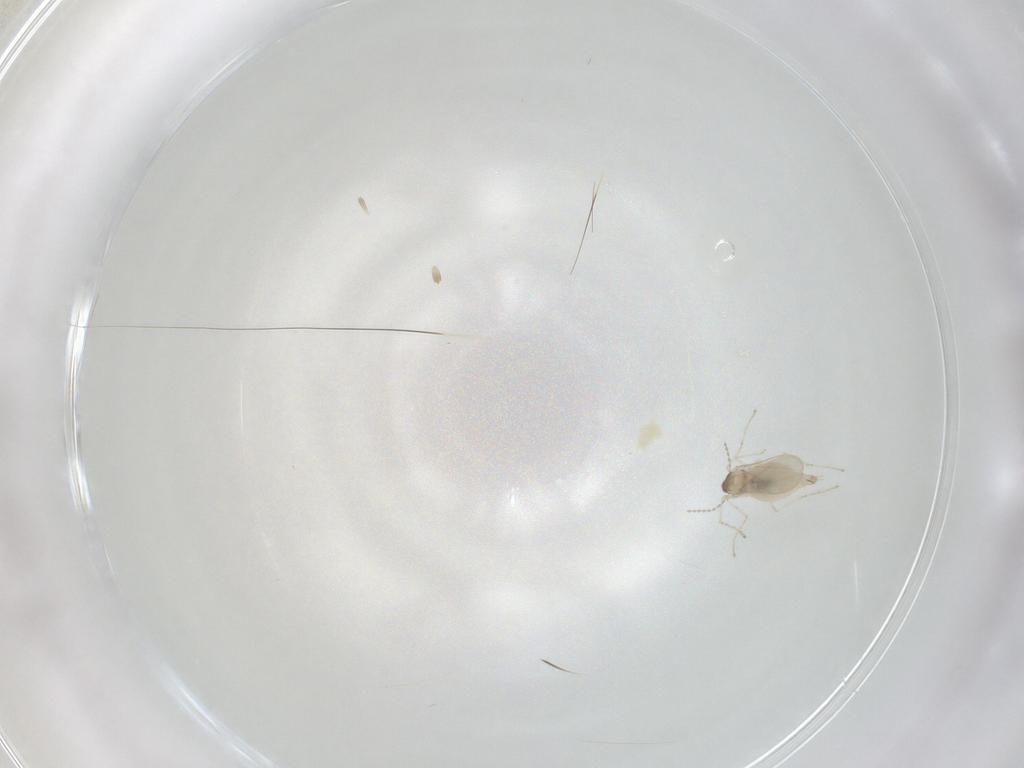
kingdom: Animalia
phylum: Arthropoda
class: Insecta
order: Diptera
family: Cecidomyiidae
